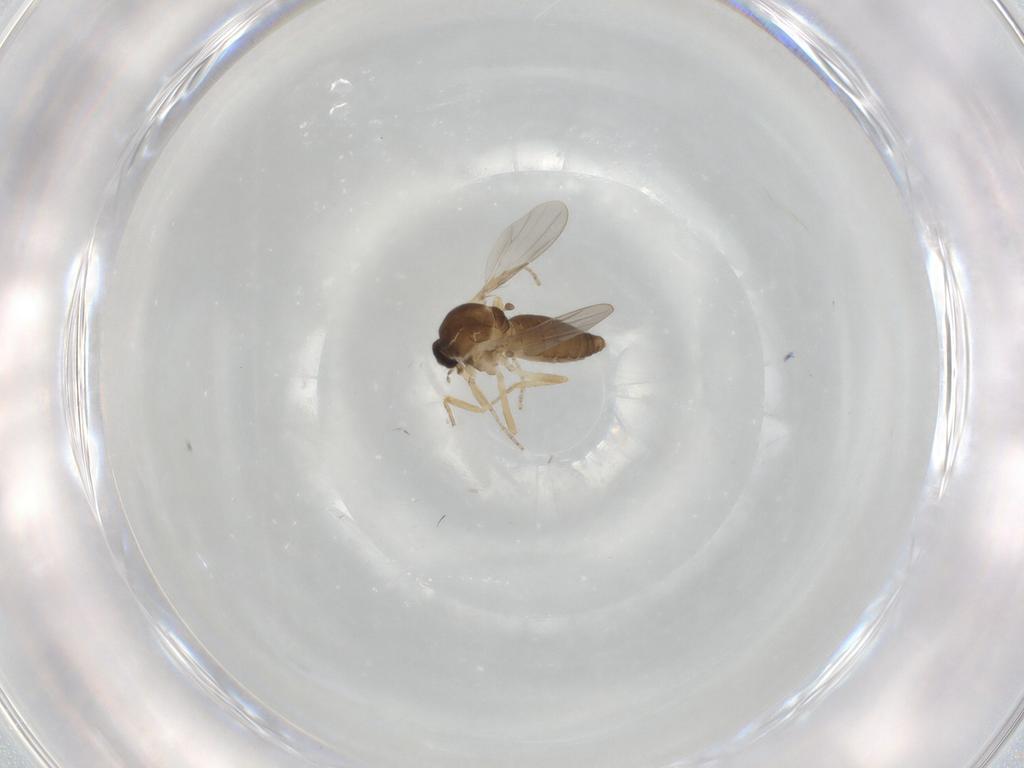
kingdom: Animalia
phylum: Arthropoda
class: Insecta
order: Diptera
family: Ceratopogonidae
